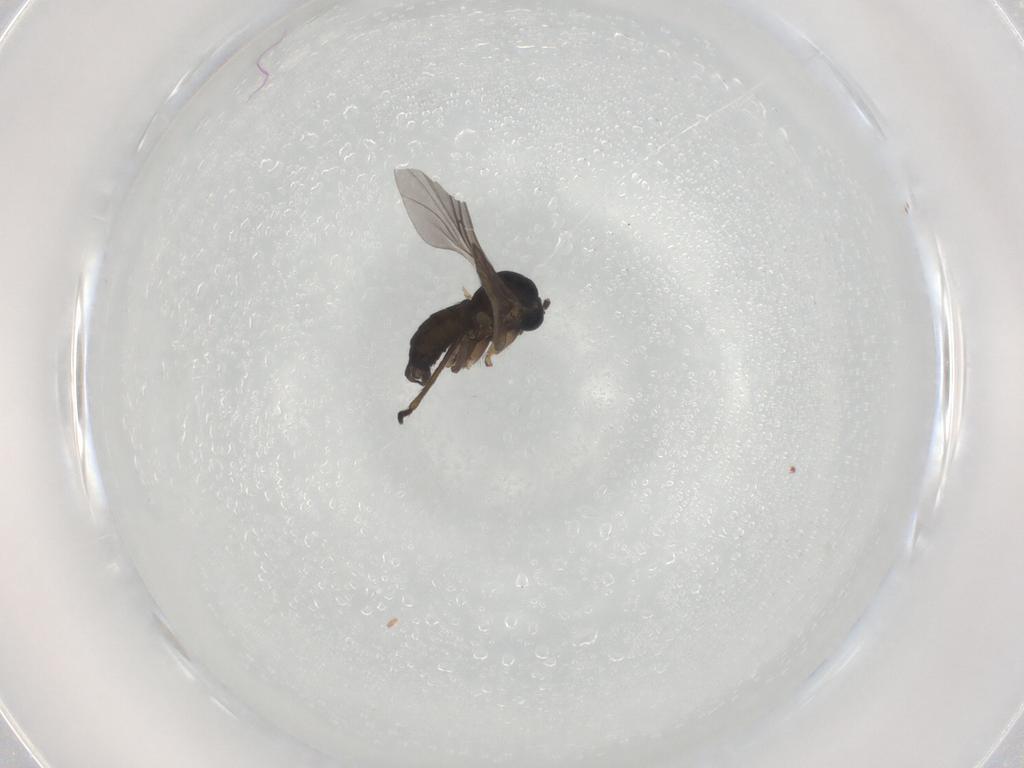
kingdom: Animalia
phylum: Arthropoda
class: Insecta
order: Diptera
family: Sciaridae
